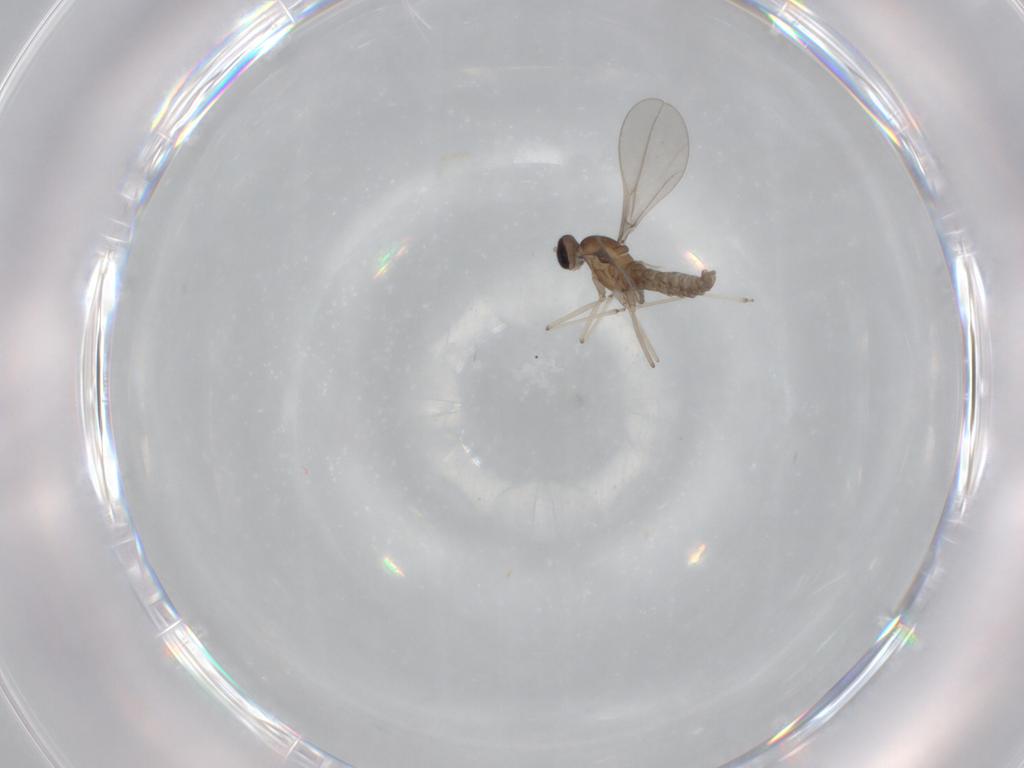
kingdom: Animalia
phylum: Arthropoda
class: Insecta
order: Diptera
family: Cecidomyiidae
